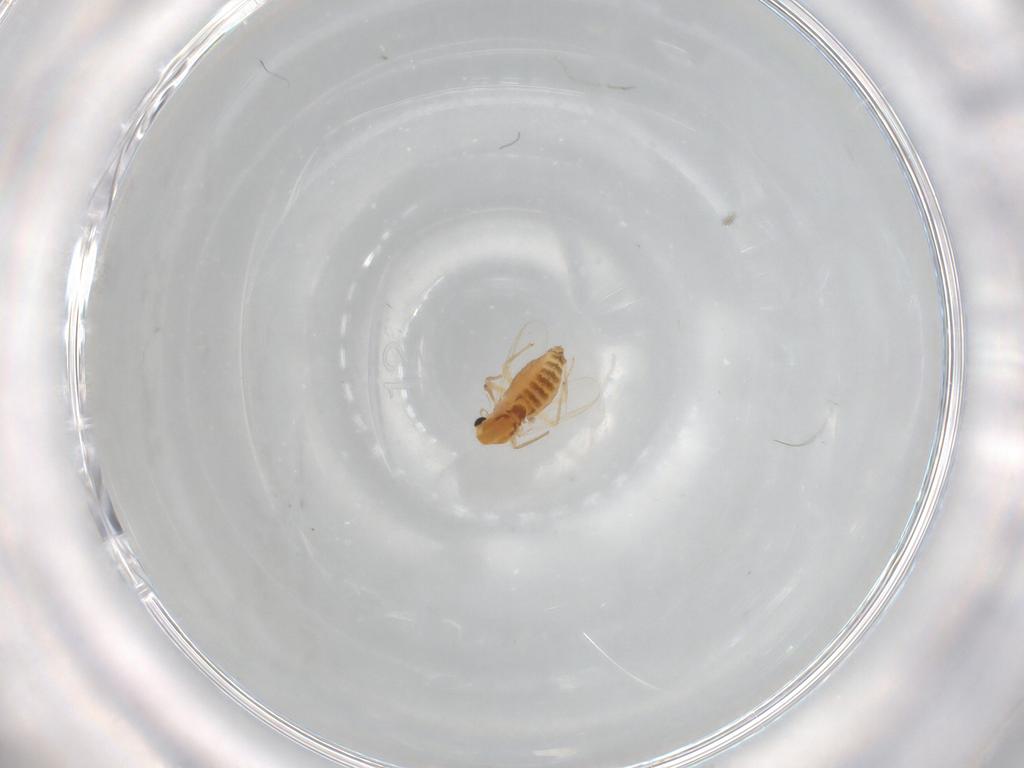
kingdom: Animalia
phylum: Arthropoda
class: Insecta
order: Diptera
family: Chironomidae
